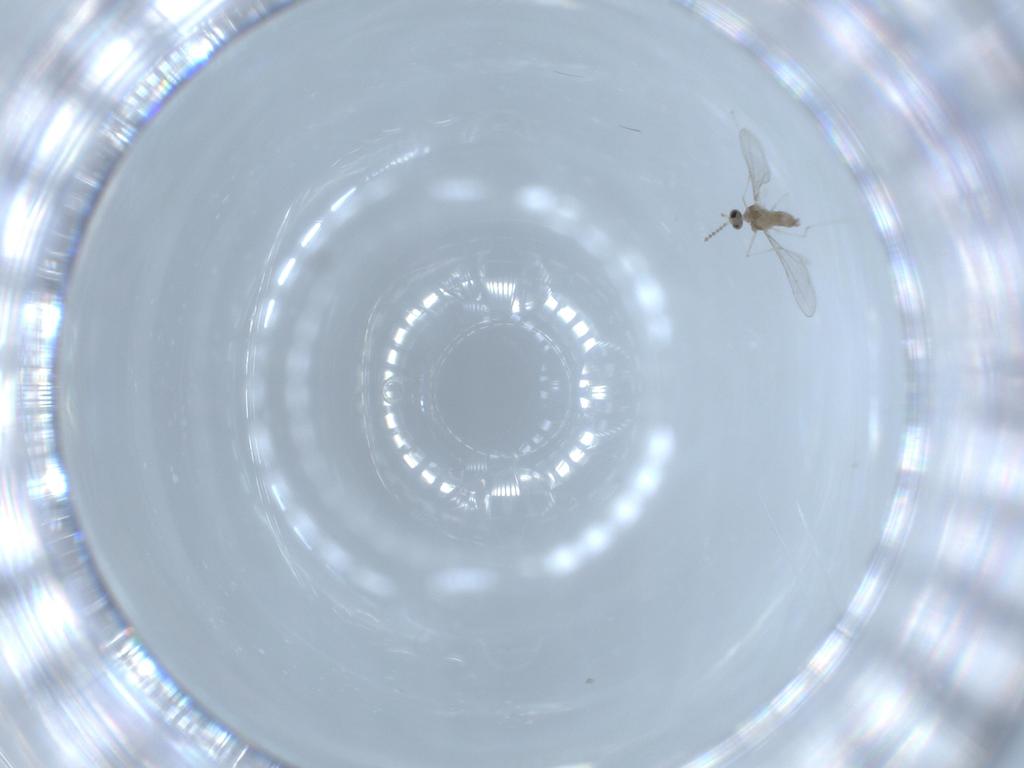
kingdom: Animalia
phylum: Arthropoda
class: Insecta
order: Diptera
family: Cecidomyiidae
